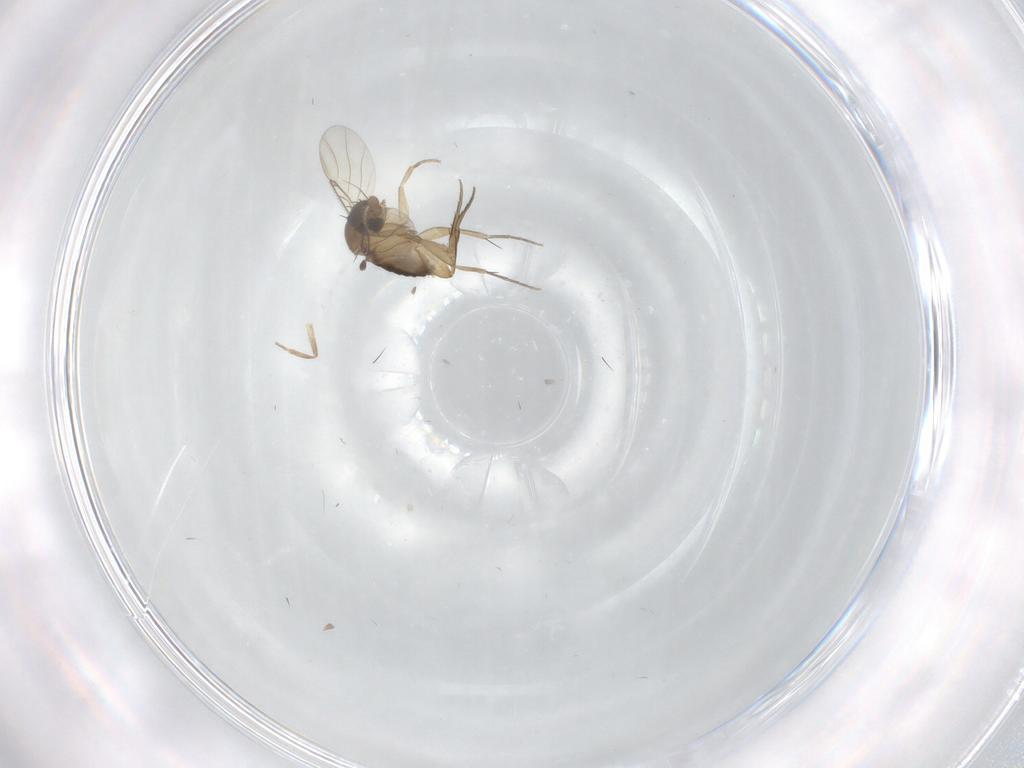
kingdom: Animalia
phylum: Arthropoda
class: Insecta
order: Diptera
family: Phoridae
